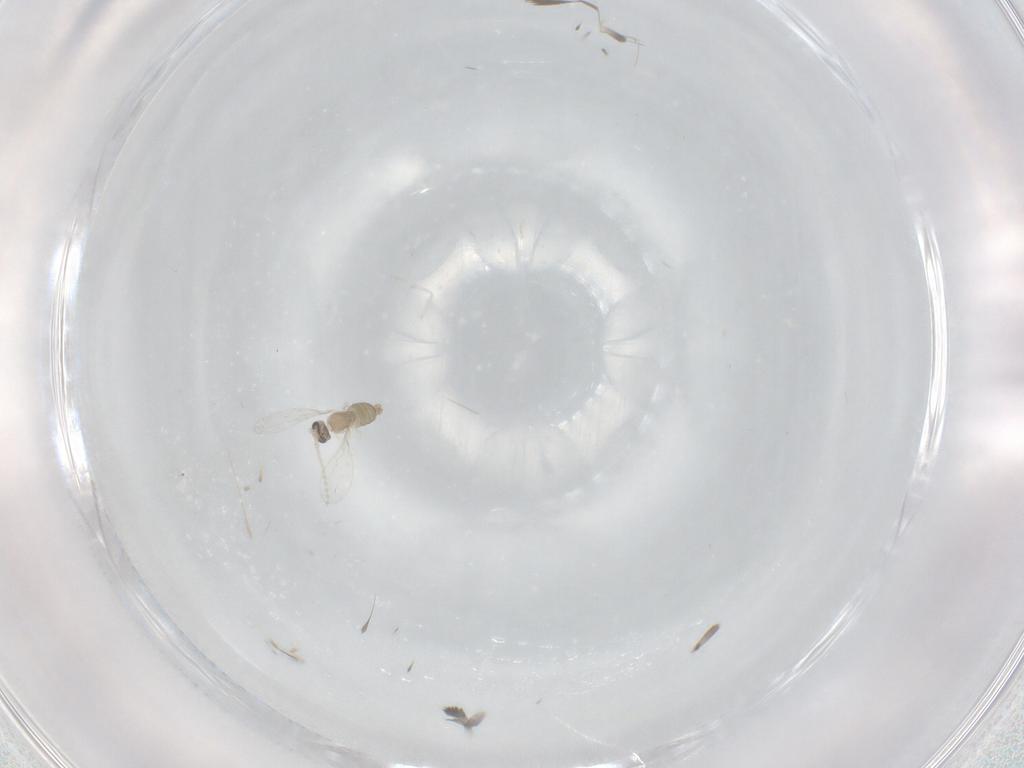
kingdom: Animalia
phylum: Arthropoda
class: Insecta
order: Diptera
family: Cecidomyiidae
